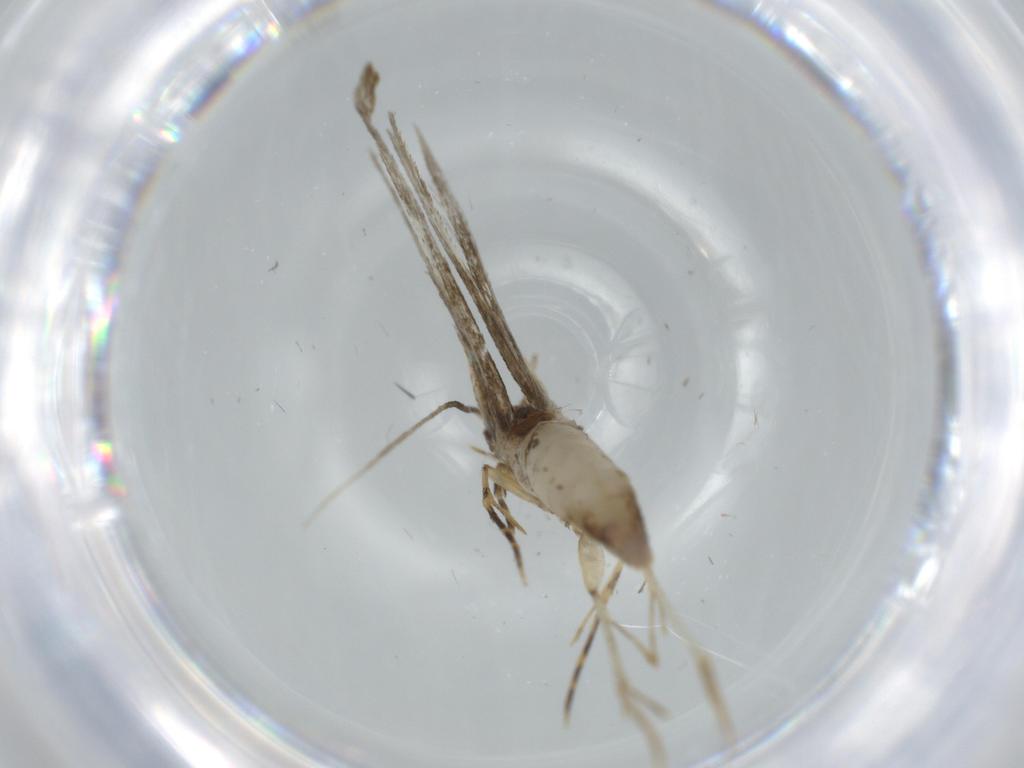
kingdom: Animalia
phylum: Arthropoda
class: Insecta
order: Lepidoptera
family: Meessiidae
